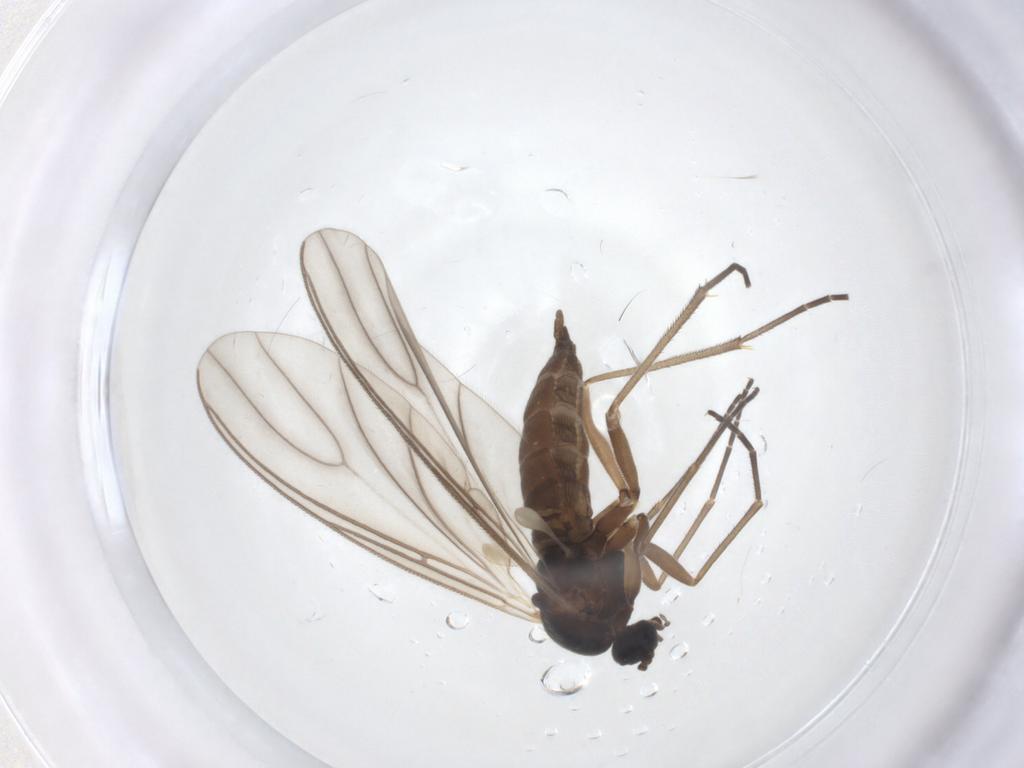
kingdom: Animalia
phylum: Arthropoda
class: Insecta
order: Diptera
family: Sciaridae
